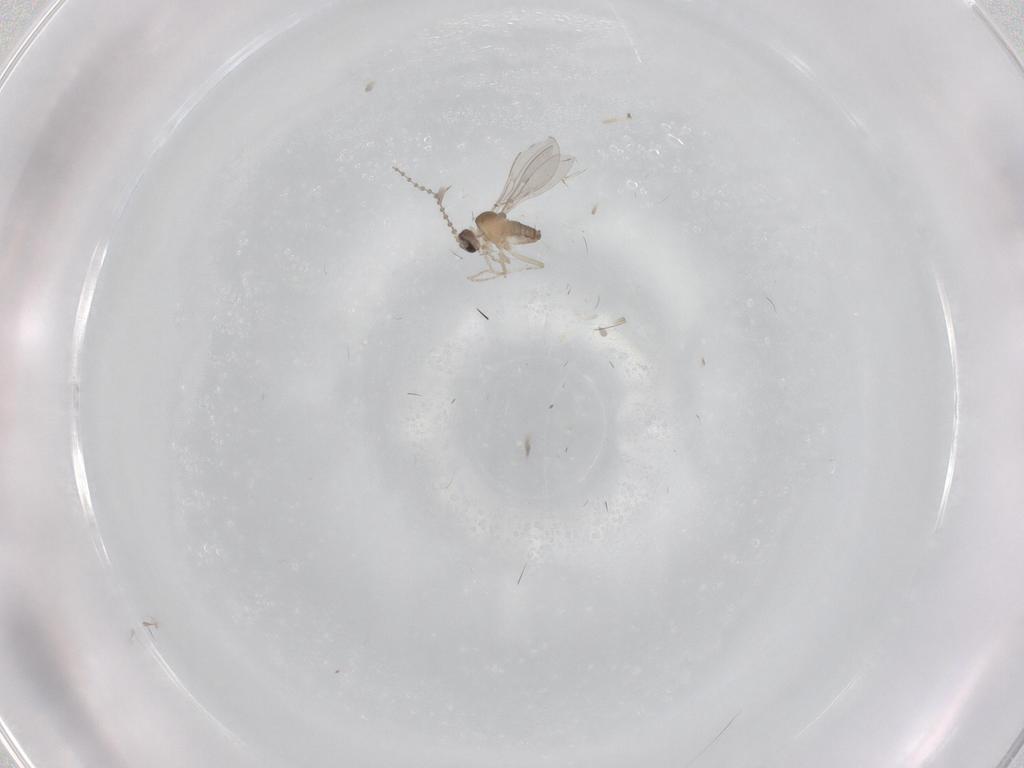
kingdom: Animalia
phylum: Arthropoda
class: Insecta
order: Diptera
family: Cecidomyiidae
